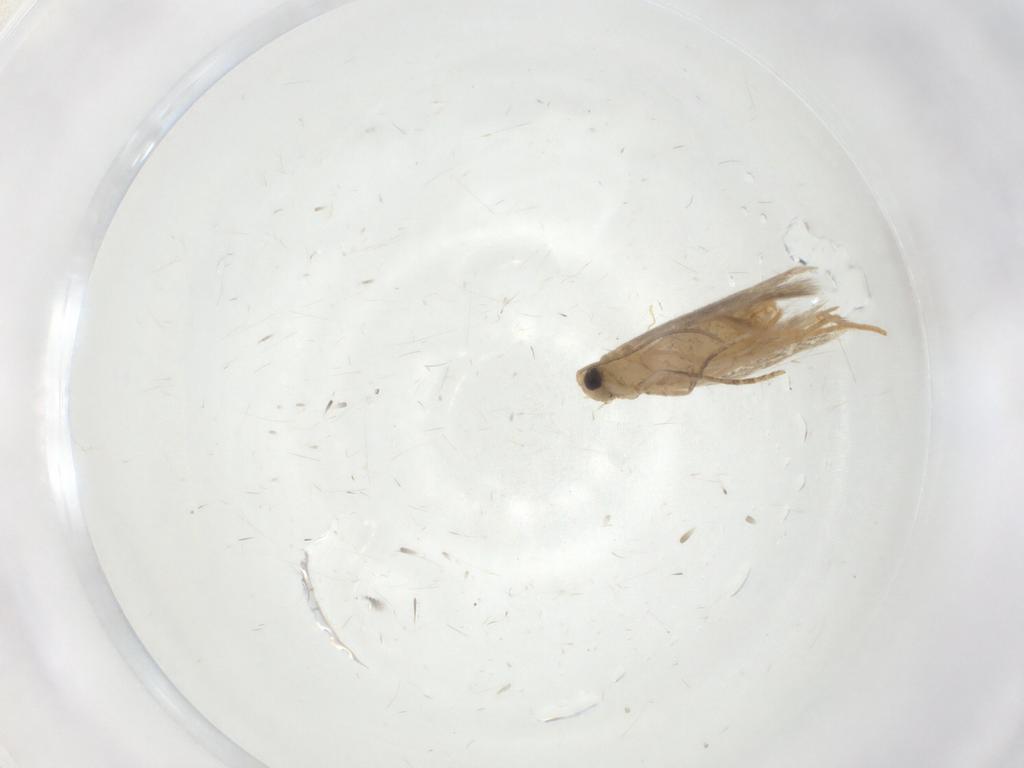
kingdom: Animalia
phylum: Arthropoda
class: Insecta
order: Lepidoptera
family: Tischeriidae
